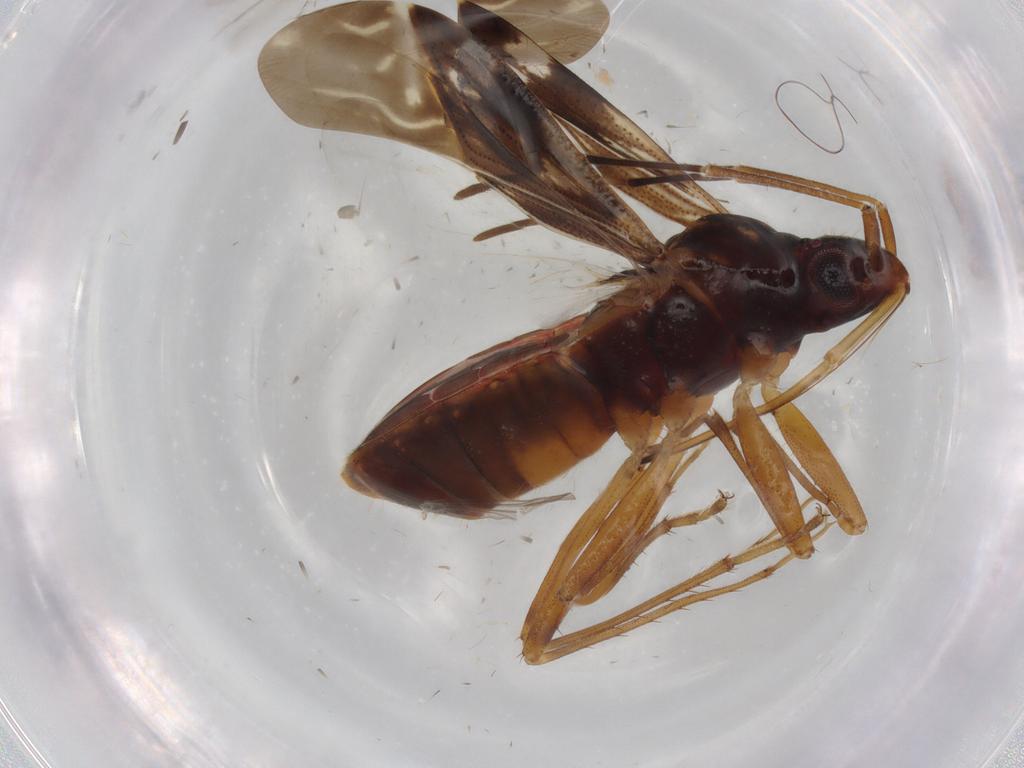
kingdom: Animalia
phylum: Arthropoda
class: Insecta
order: Hemiptera
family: Rhyparochromidae
